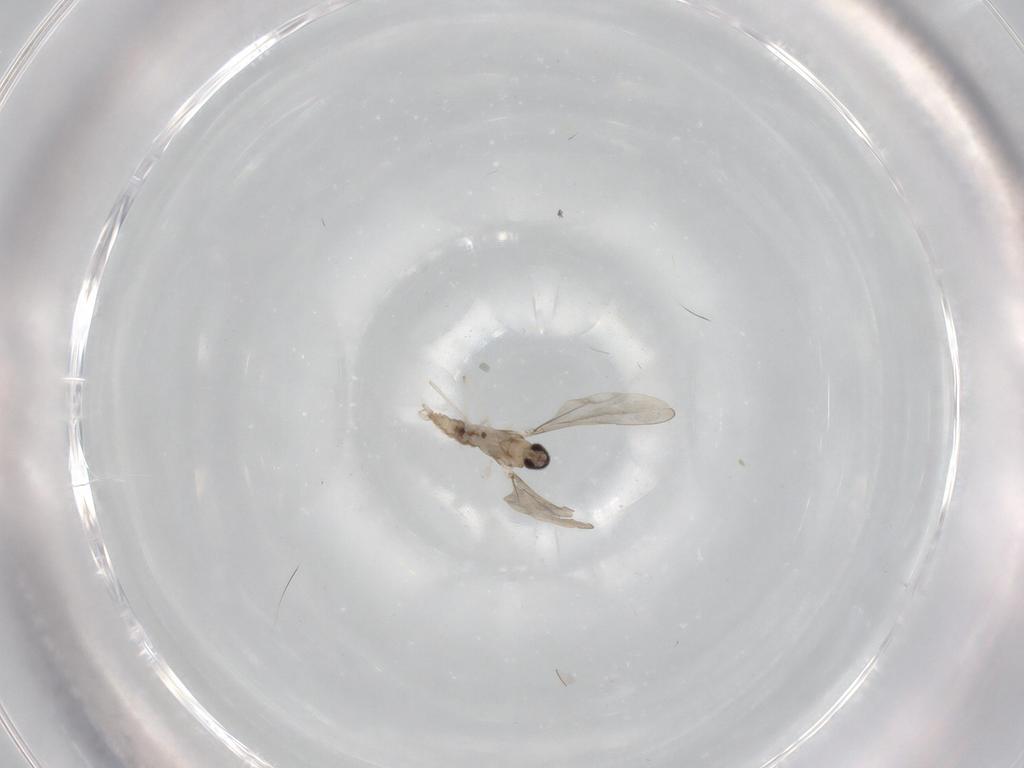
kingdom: Animalia
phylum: Arthropoda
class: Insecta
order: Diptera
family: Cecidomyiidae
